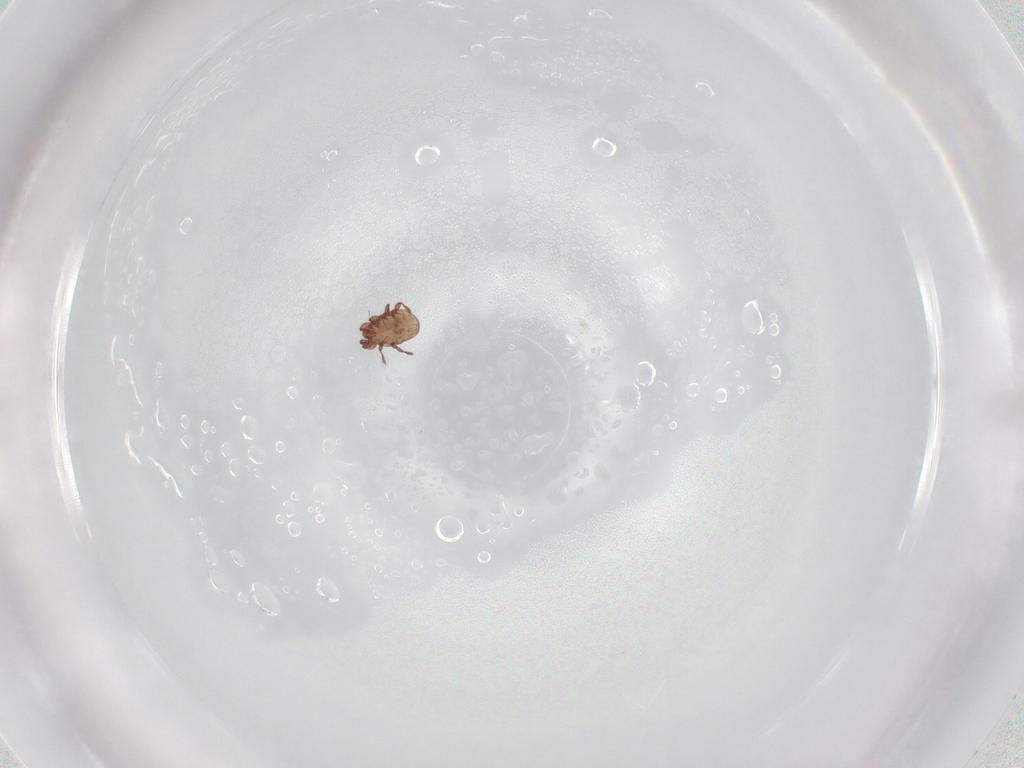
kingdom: Animalia
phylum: Arthropoda
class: Arachnida
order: Sarcoptiformes
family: Eremaeidae
